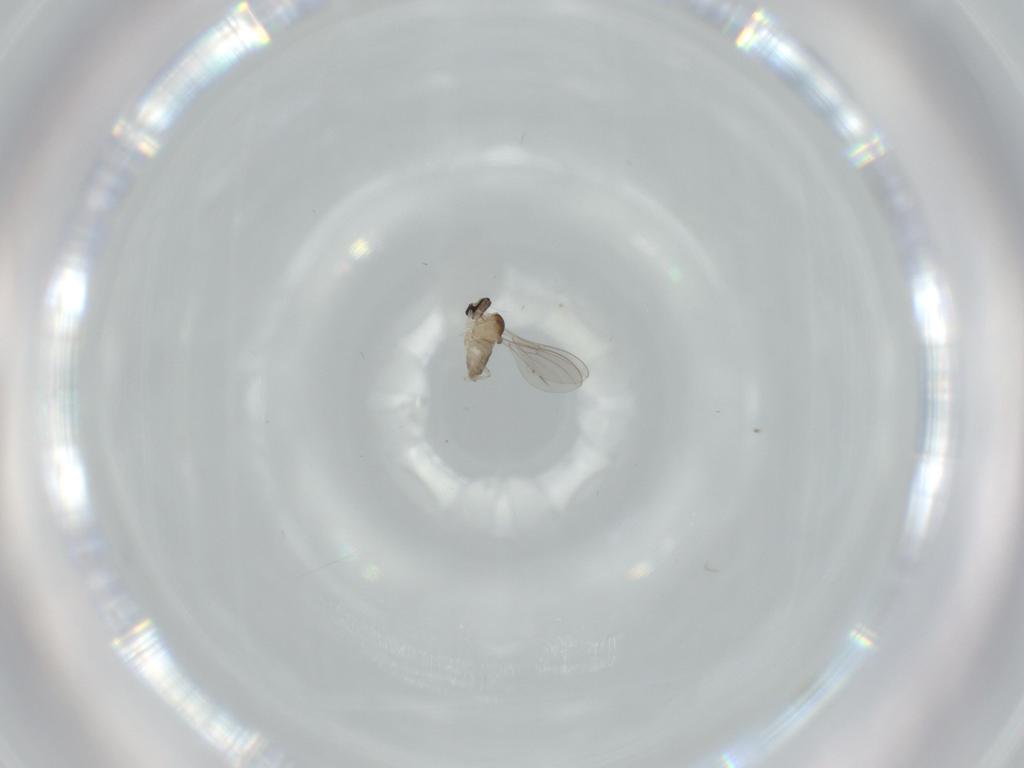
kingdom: Animalia
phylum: Arthropoda
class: Insecta
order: Diptera
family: Cecidomyiidae
